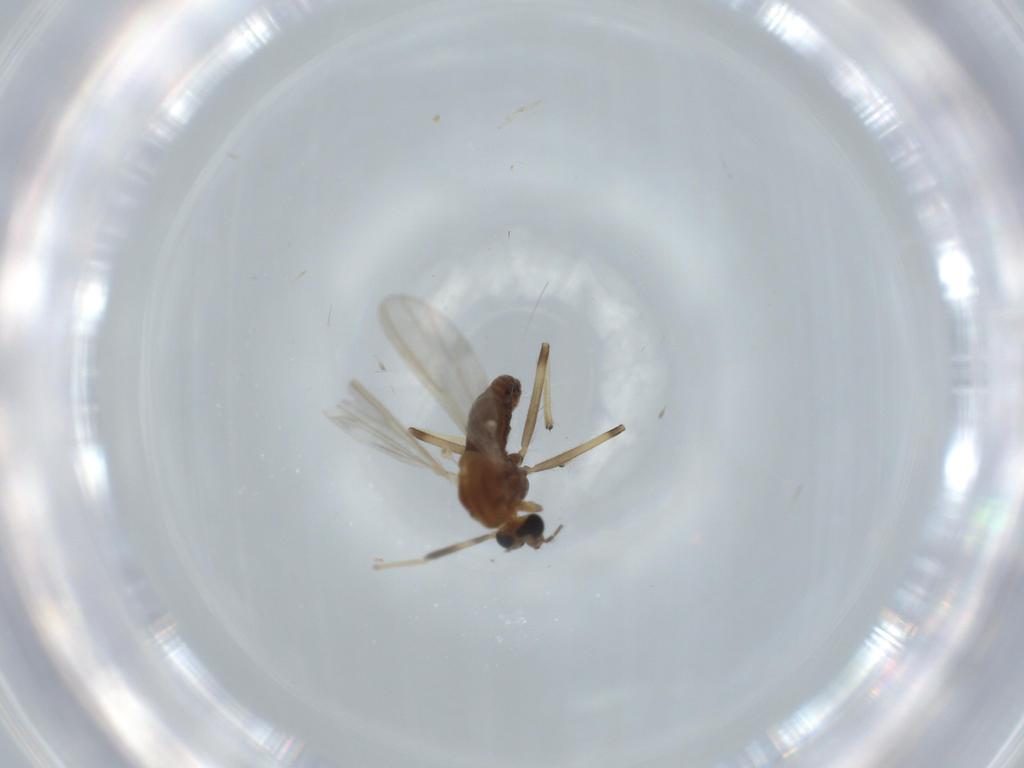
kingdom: Animalia
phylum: Arthropoda
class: Insecta
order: Diptera
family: Chironomidae
